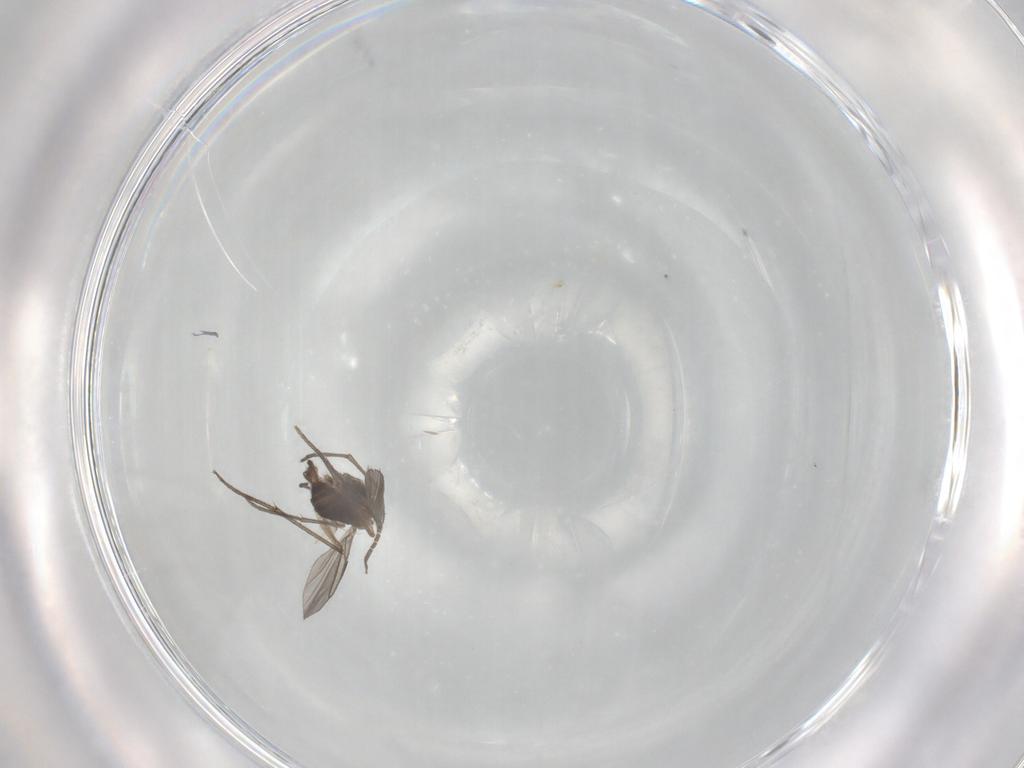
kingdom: Animalia
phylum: Arthropoda
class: Insecta
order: Diptera
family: Sciaridae
